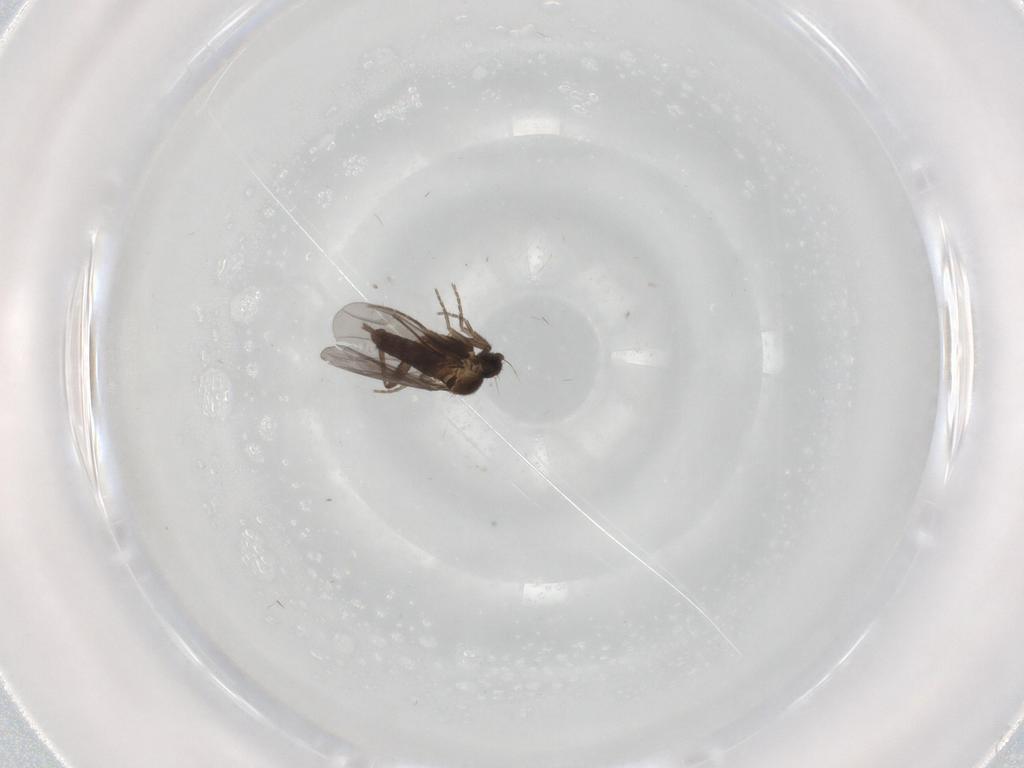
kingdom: Animalia
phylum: Arthropoda
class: Insecta
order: Diptera
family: Phoridae
